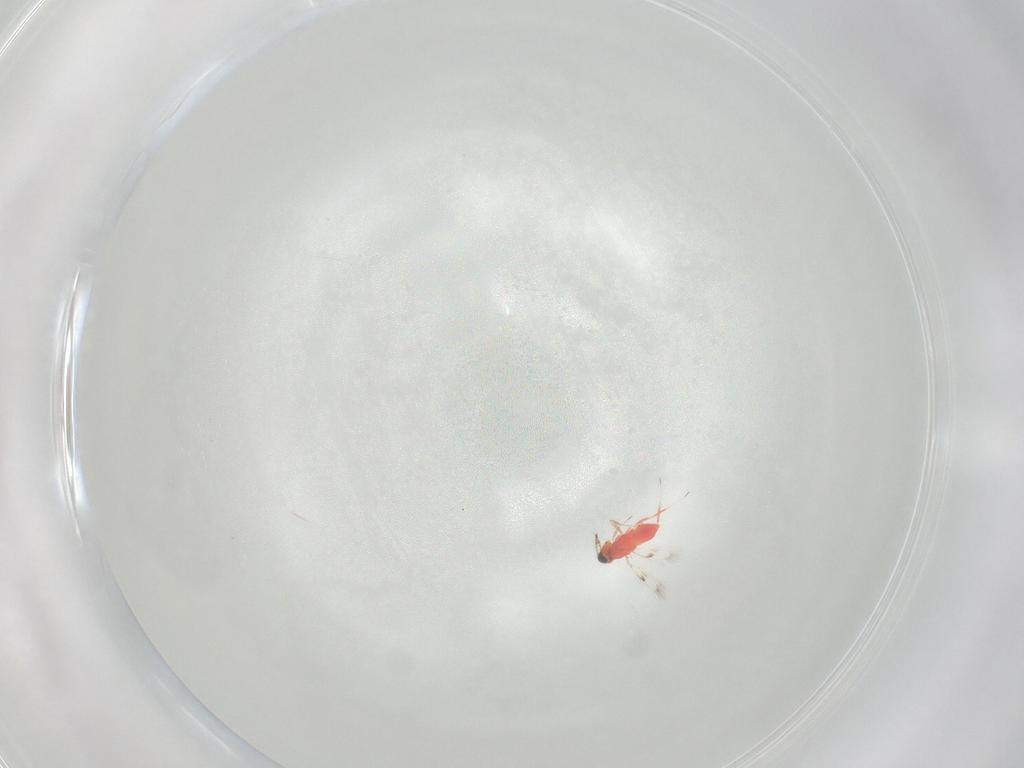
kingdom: Animalia
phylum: Arthropoda
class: Insecta
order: Hymenoptera
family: Trichogrammatidae
